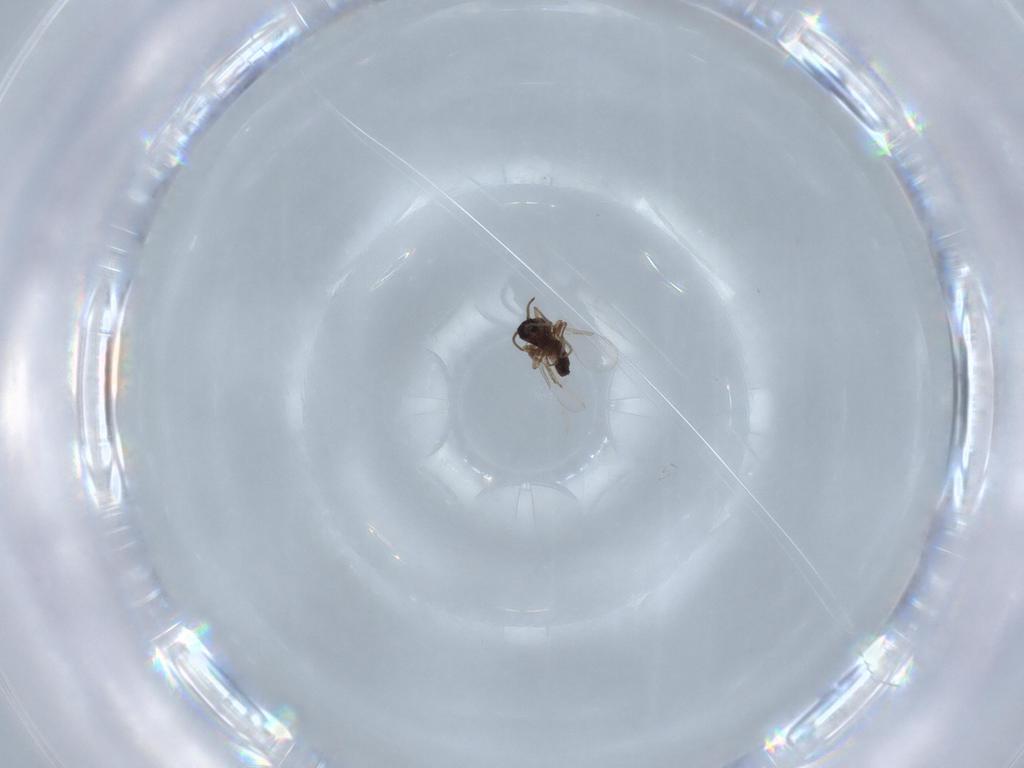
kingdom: Animalia
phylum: Arthropoda
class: Insecta
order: Diptera
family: Ceratopogonidae
